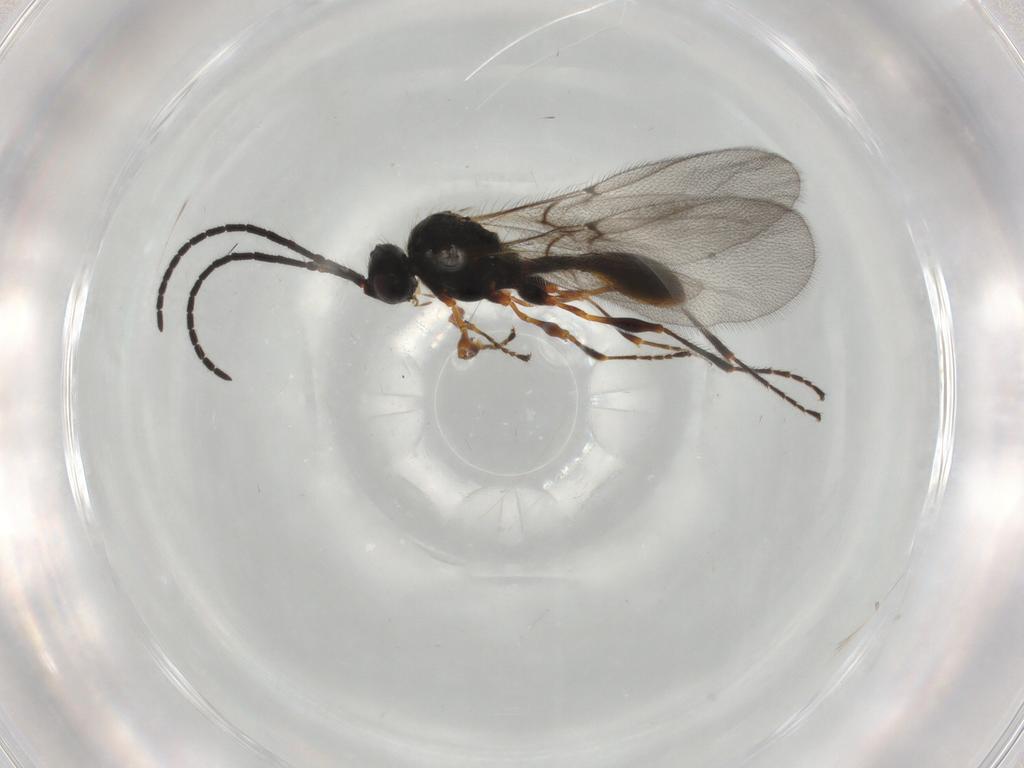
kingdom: Animalia
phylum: Arthropoda
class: Insecta
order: Hymenoptera
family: Diapriidae
